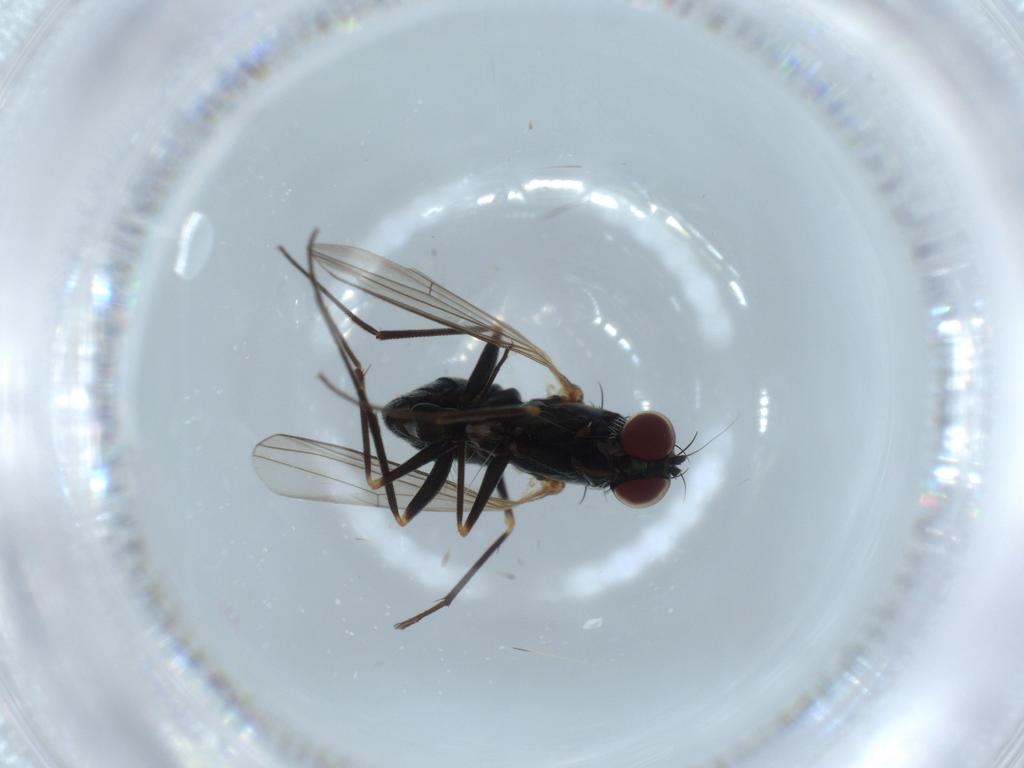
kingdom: Animalia
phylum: Arthropoda
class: Insecta
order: Diptera
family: Dolichopodidae
